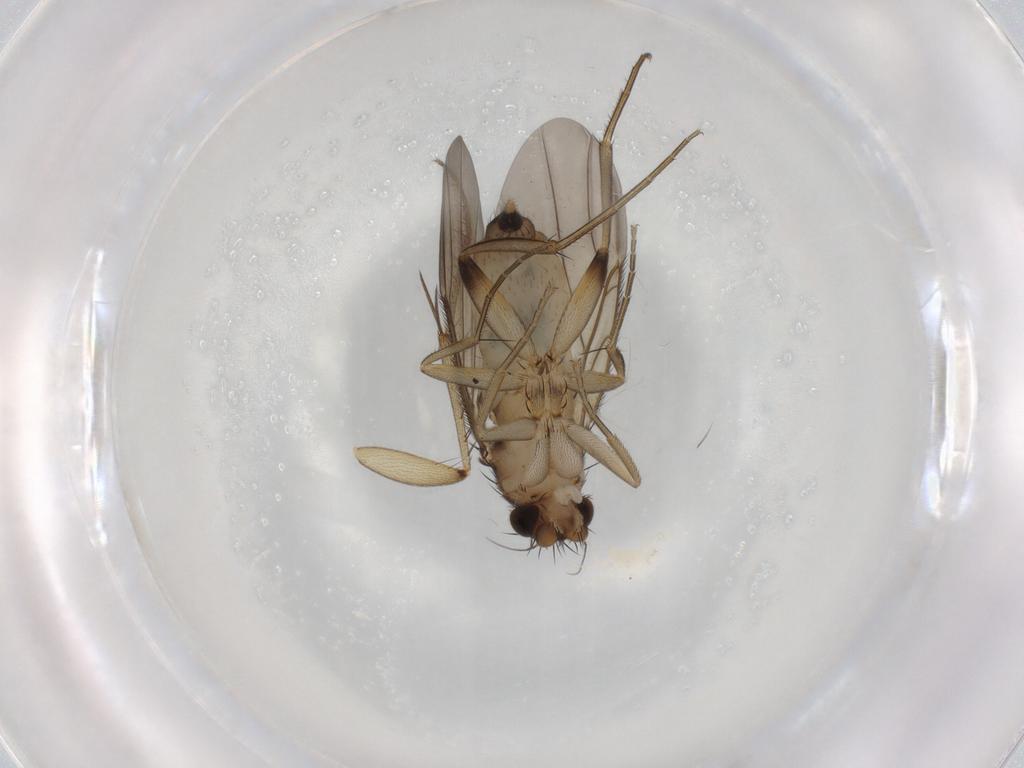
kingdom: Animalia
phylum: Arthropoda
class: Insecta
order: Diptera
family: Phoridae
